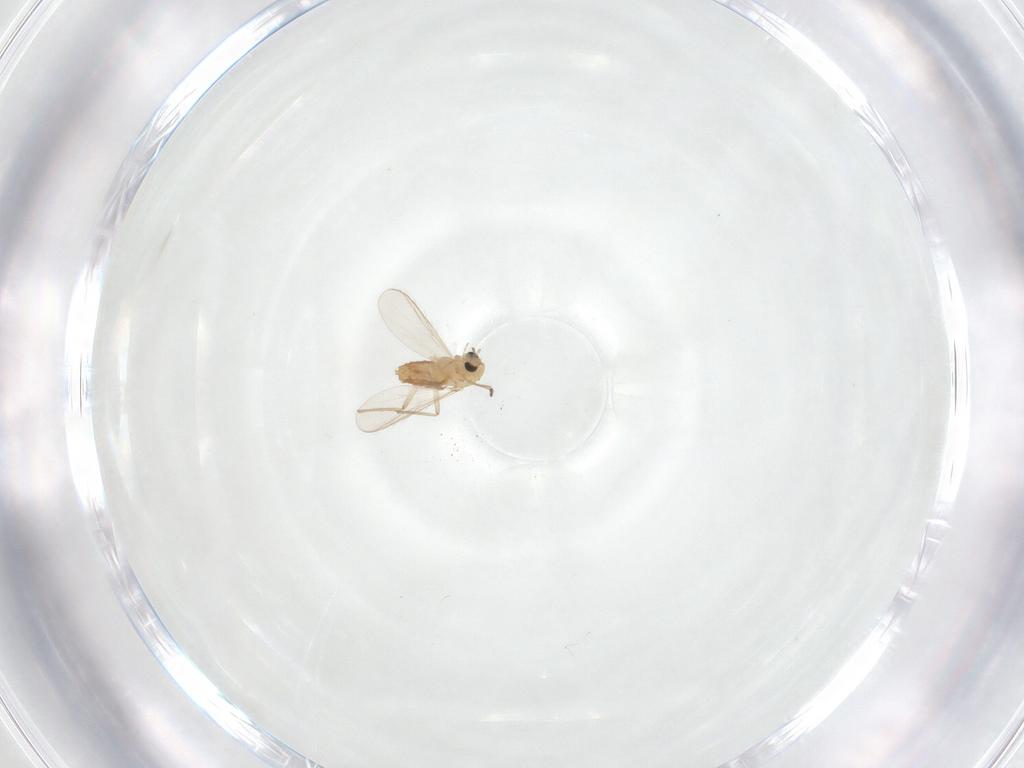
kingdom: Animalia
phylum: Arthropoda
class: Insecta
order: Diptera
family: Chironomidae
